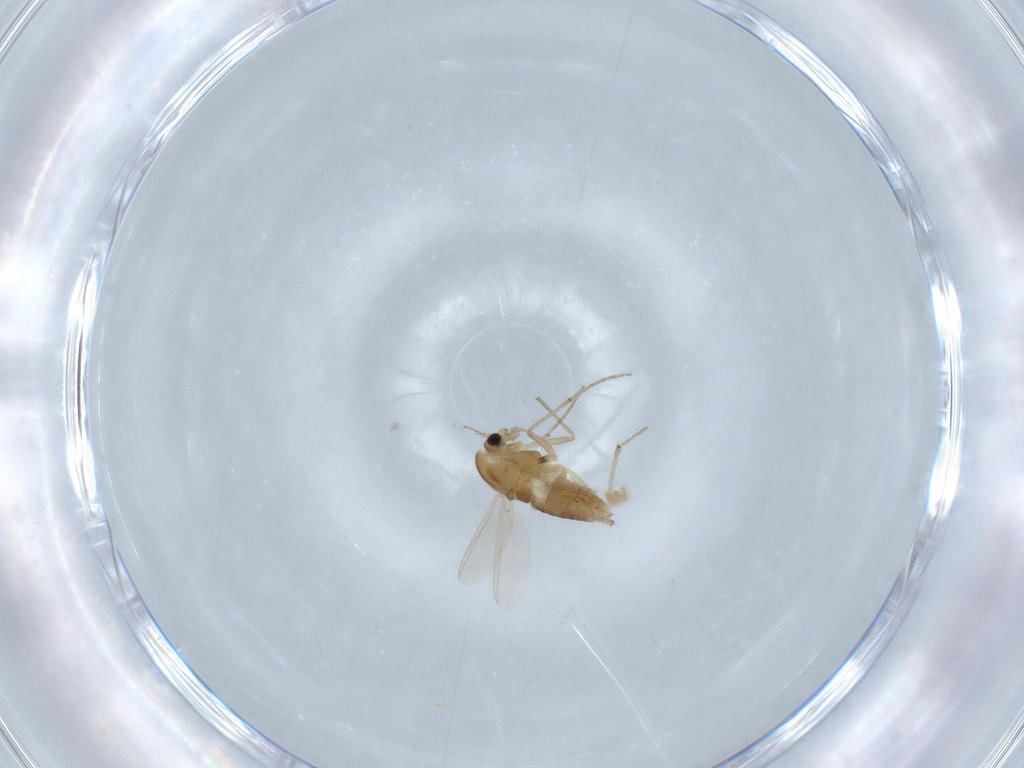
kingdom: Animalia
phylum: Arthropoda
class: Insecta
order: Diptera
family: Chironomidae
